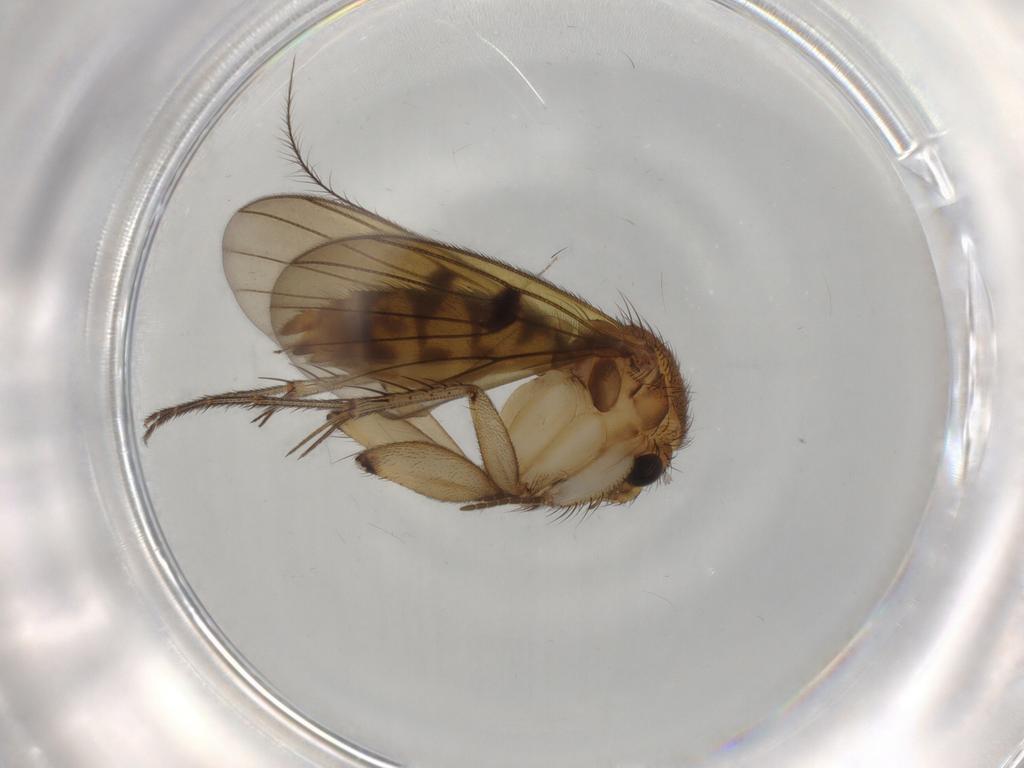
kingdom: Animalia
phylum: Arthropoda
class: Insecta
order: Diptera
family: Mycetophilidae
